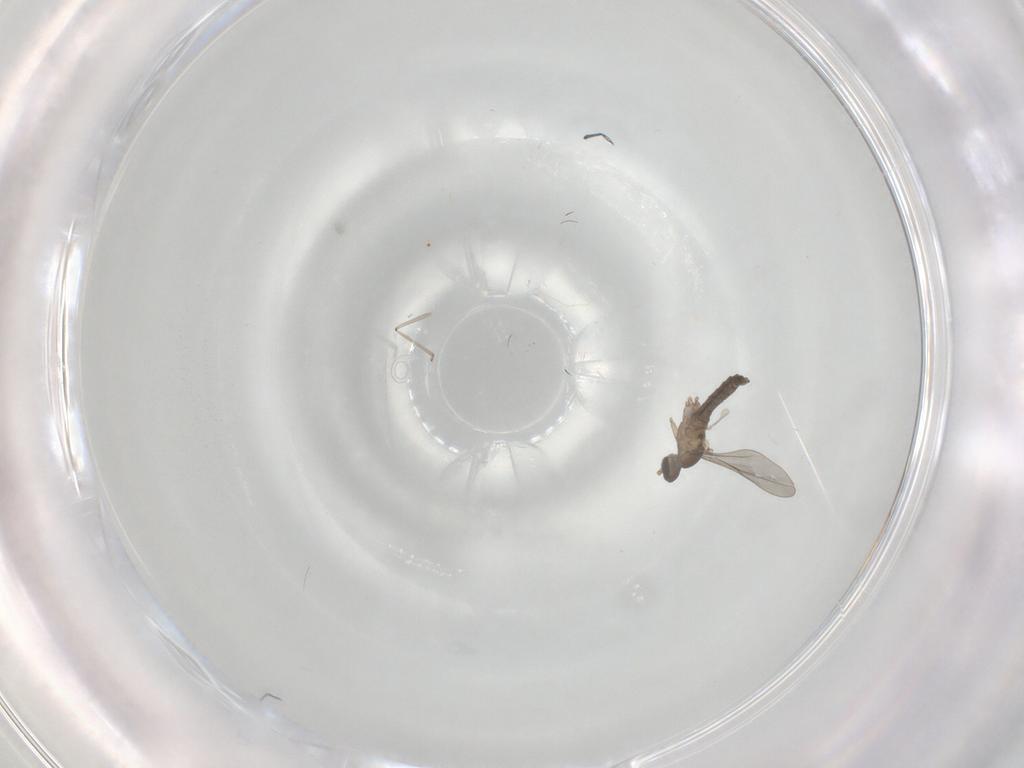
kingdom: Animalia
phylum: Arthropoda
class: Insecta
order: Diptera
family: Cecidomyiidae
